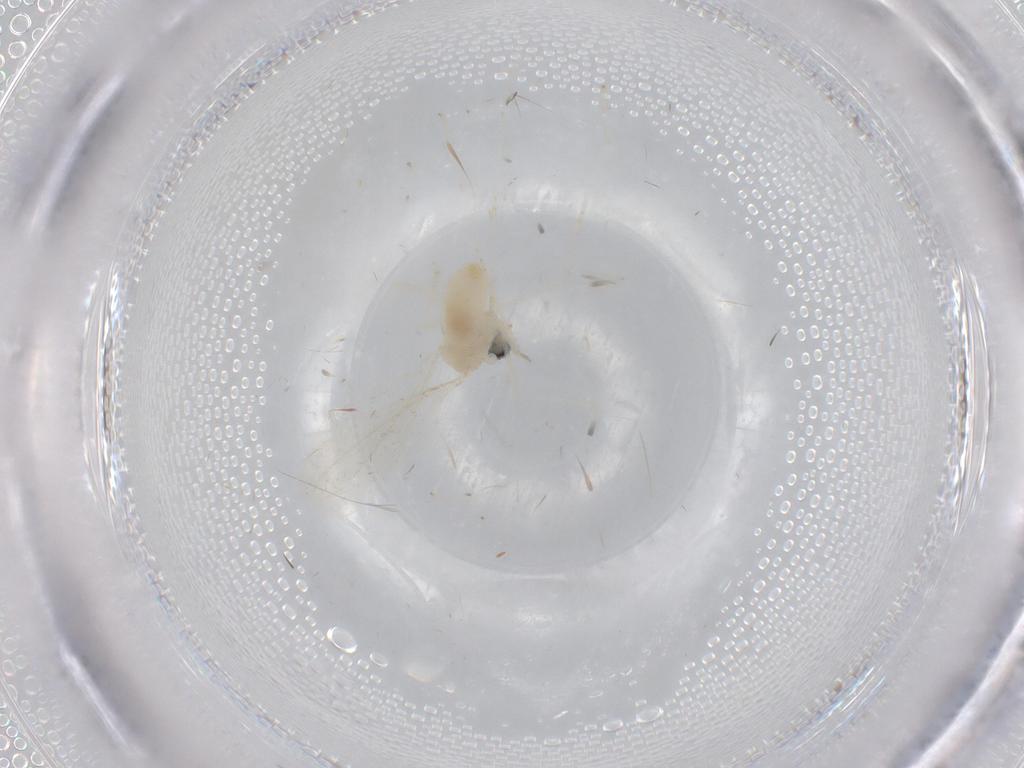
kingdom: Animalia
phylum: Arthropoda
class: Insecta
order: Diptera
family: Cecidomyiidae
